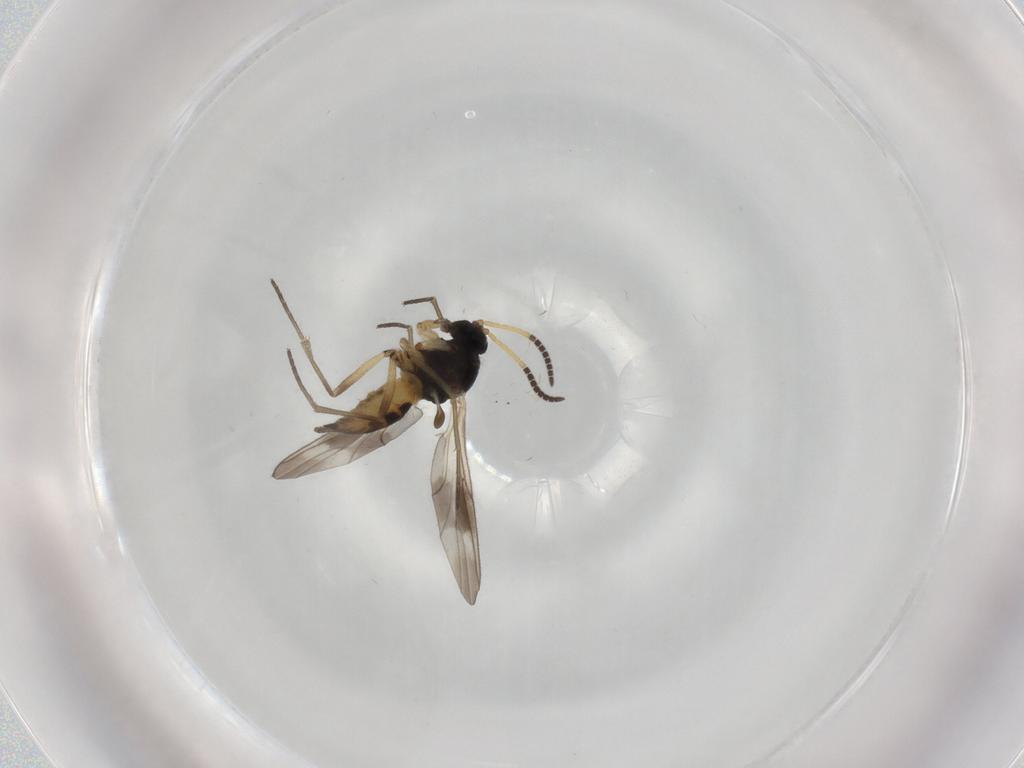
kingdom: Animalia
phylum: Arthropoda
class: Insecta
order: Diptera
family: Sciaridae
